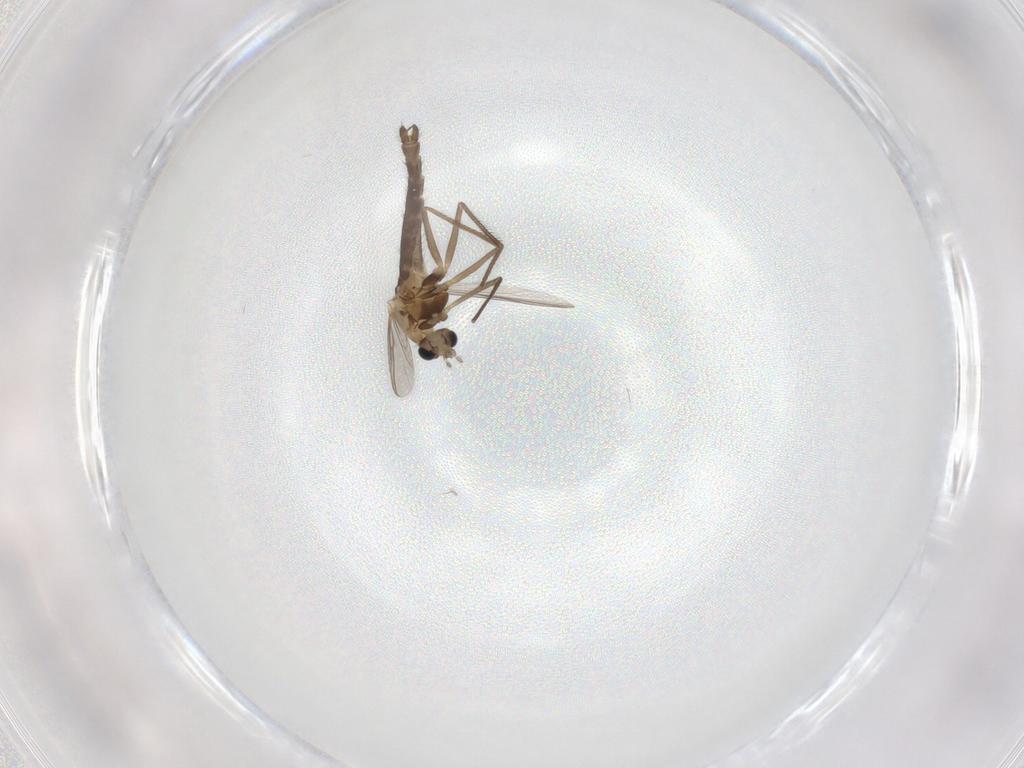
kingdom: Animalia
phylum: Arthropoda
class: Insecta
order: Diptera
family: Chironomidae
